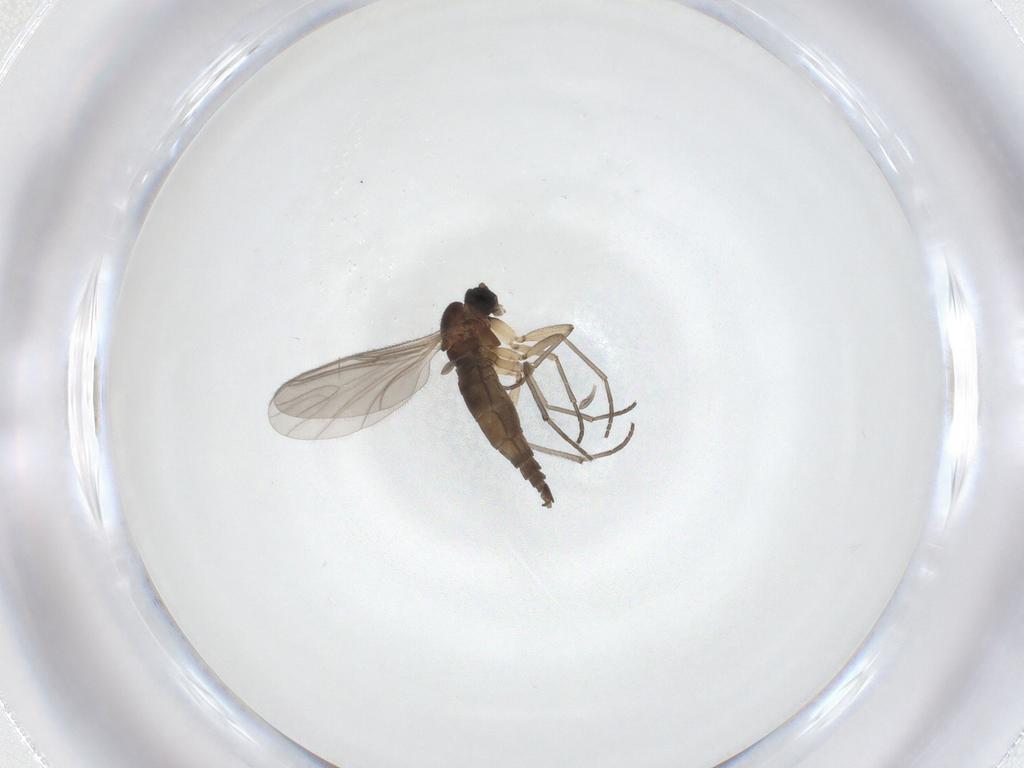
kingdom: Animalia
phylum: Arthropoda
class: Insecta
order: Diptera
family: Sciaridae
